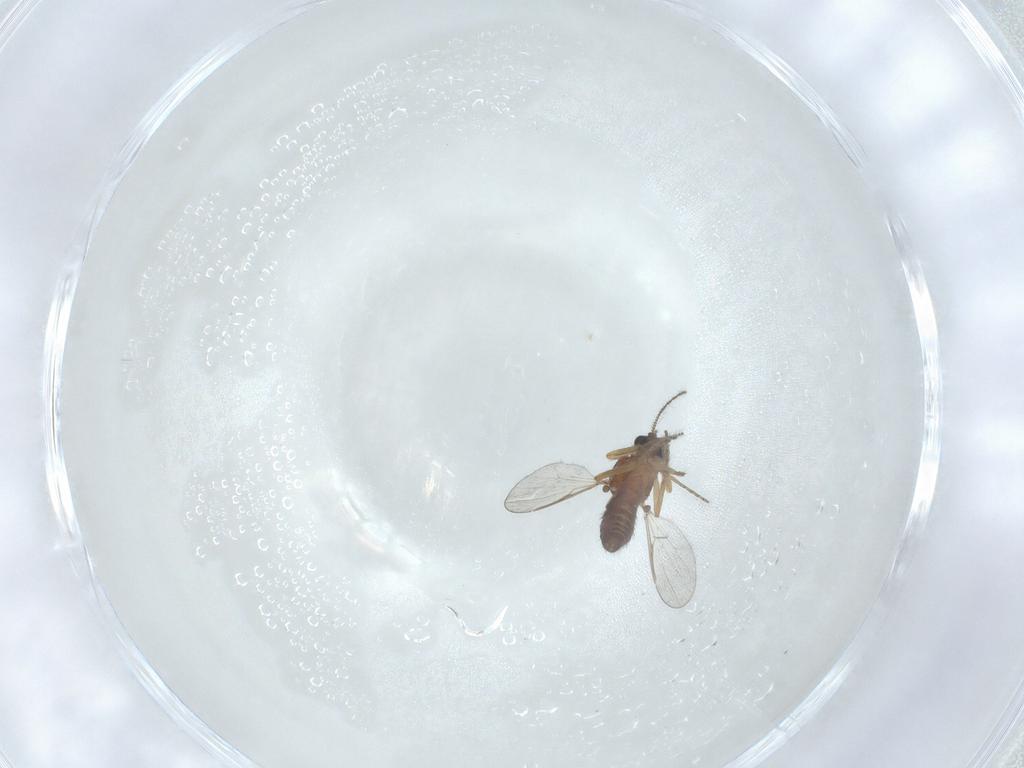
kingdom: Animalia
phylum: Arthropoda
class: Insecta
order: Diptera
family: Ceratopogonidae
